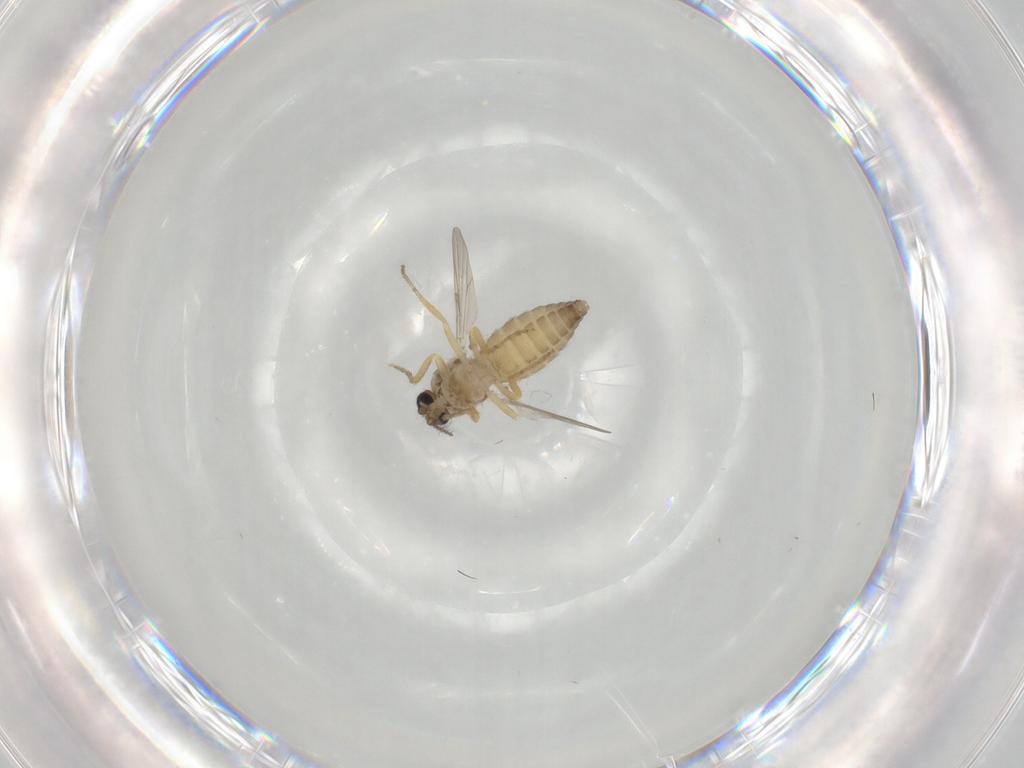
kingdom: Animalia
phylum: Arthropoda
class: Insecta
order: Diptera
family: Ceratopogonidae
